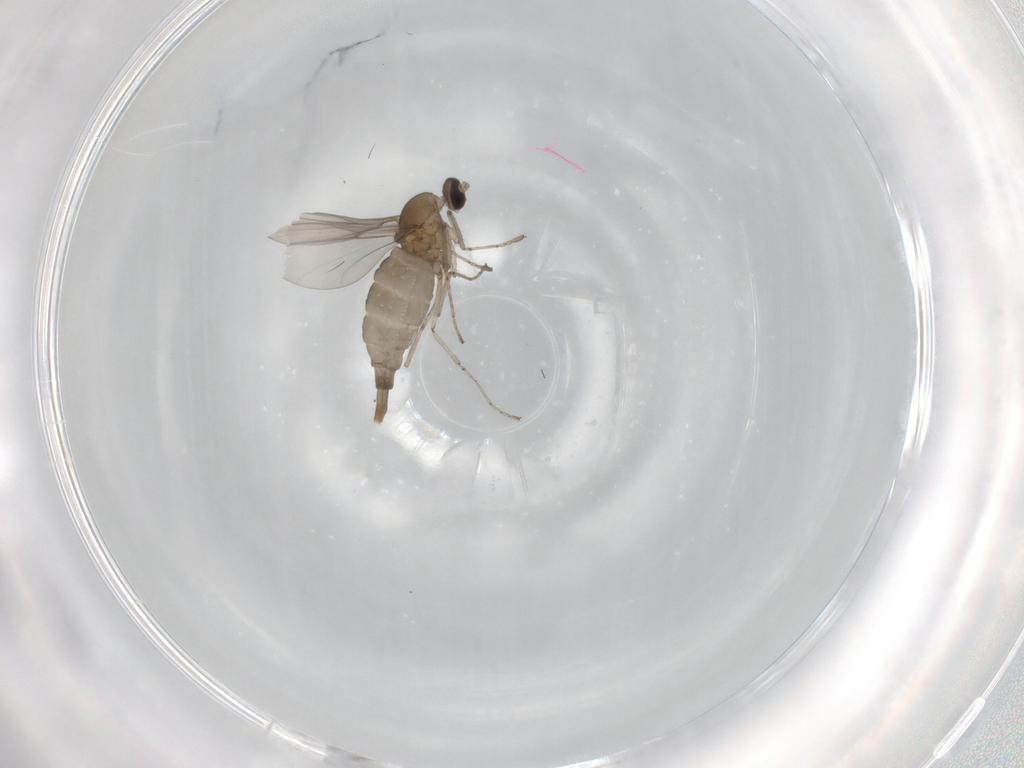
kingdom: Animalia
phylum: Arthropoda
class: Insecta
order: Diptera
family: Cecidomyiidae
